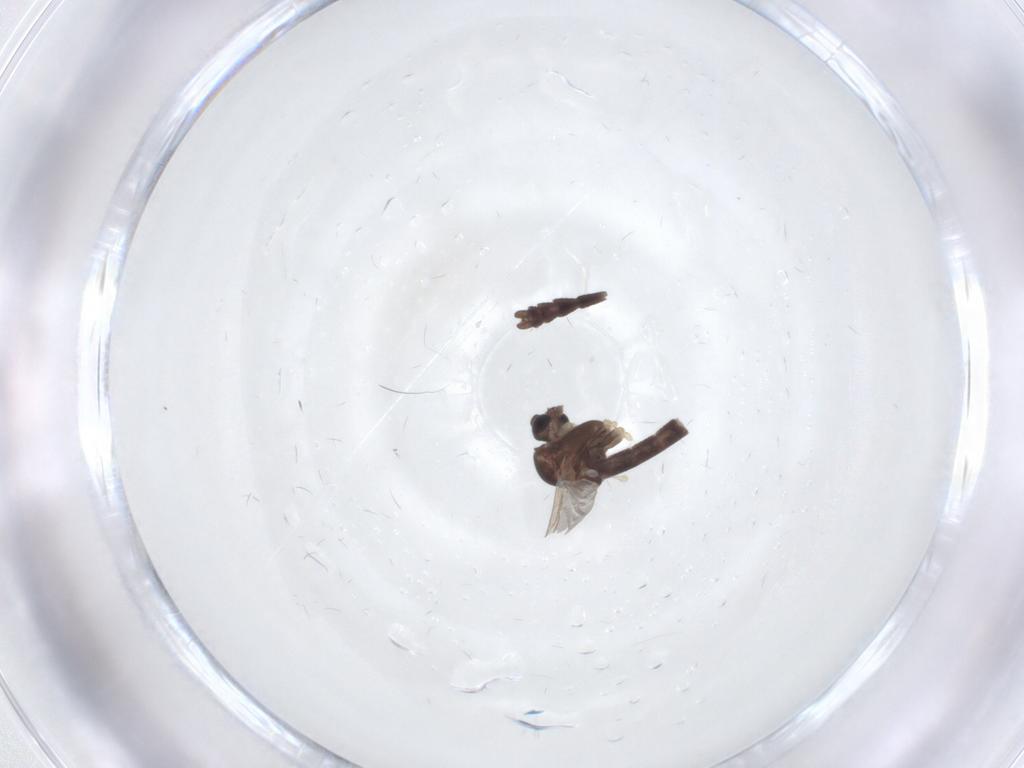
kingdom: Animalia
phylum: Arthropoda
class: Insecta
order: Diptera
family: Chironomidae
